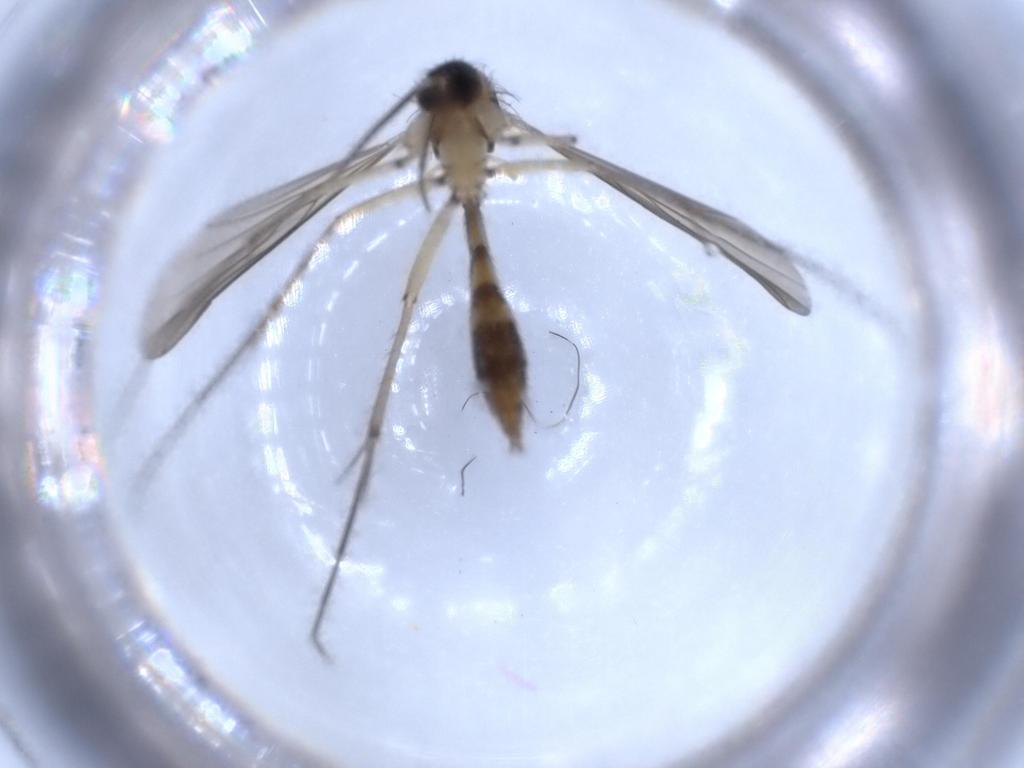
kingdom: Animalia
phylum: Arthropoda
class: Insecta
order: Diptera
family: Mycetophilidae
